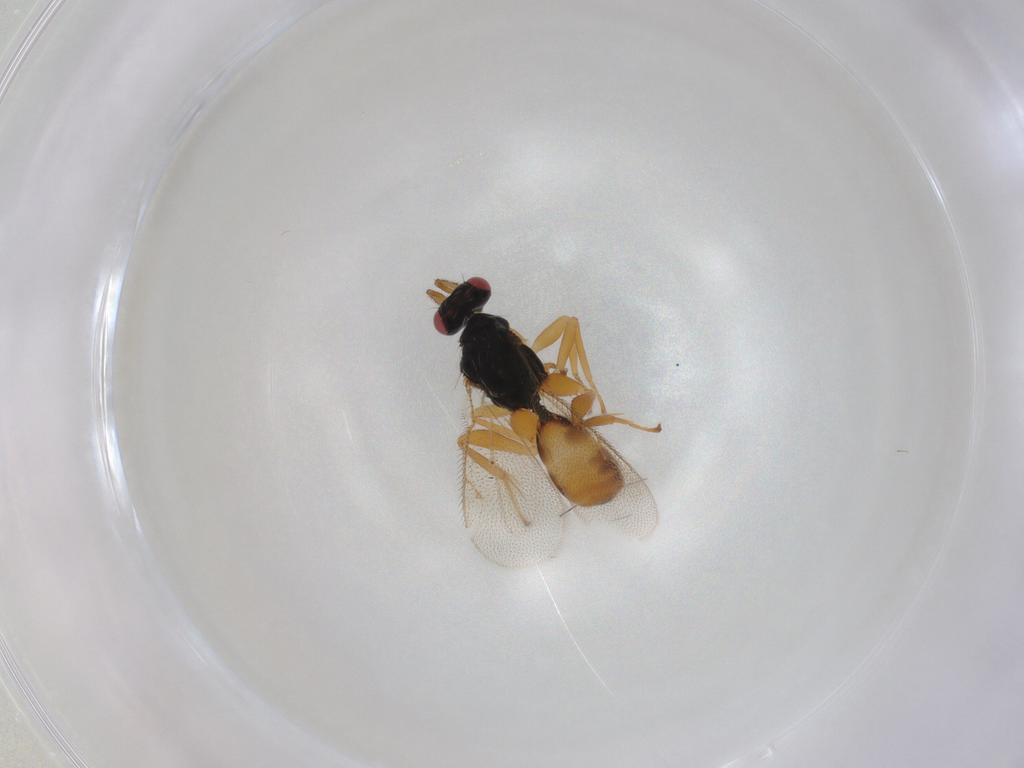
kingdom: Animalia
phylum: Arthropoda
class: Insecta
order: Hymenoptera
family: Eulophidae
